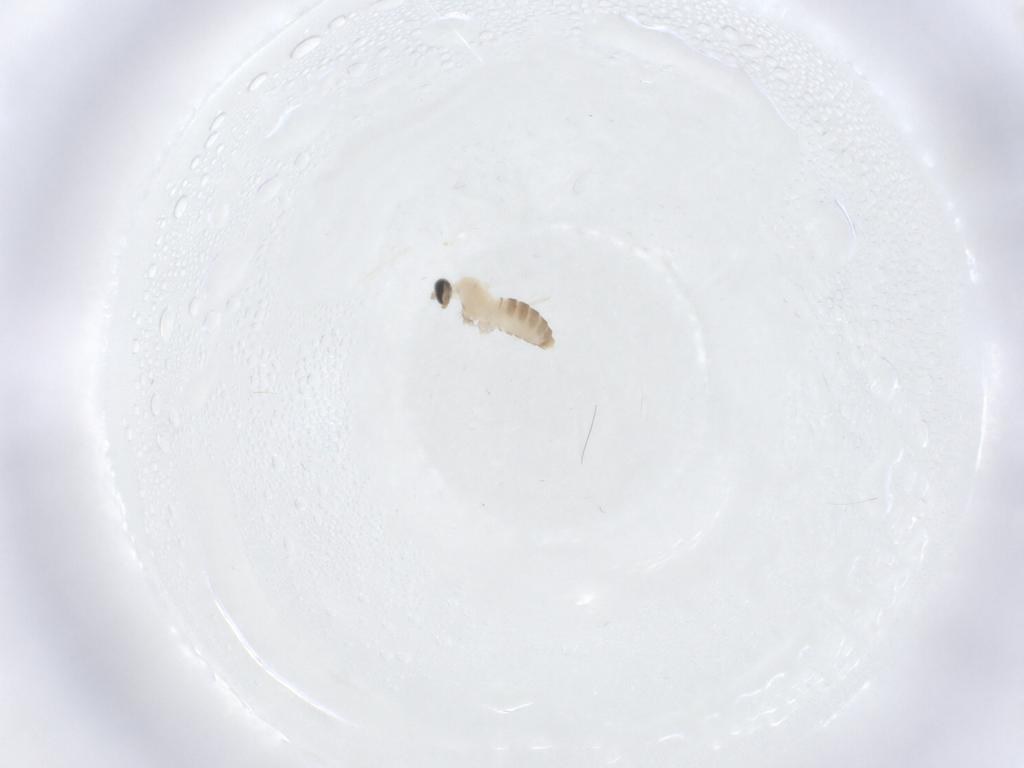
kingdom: Animalia
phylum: Arthropoda
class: Insecta
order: Diptera
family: Cecidomyiidae
